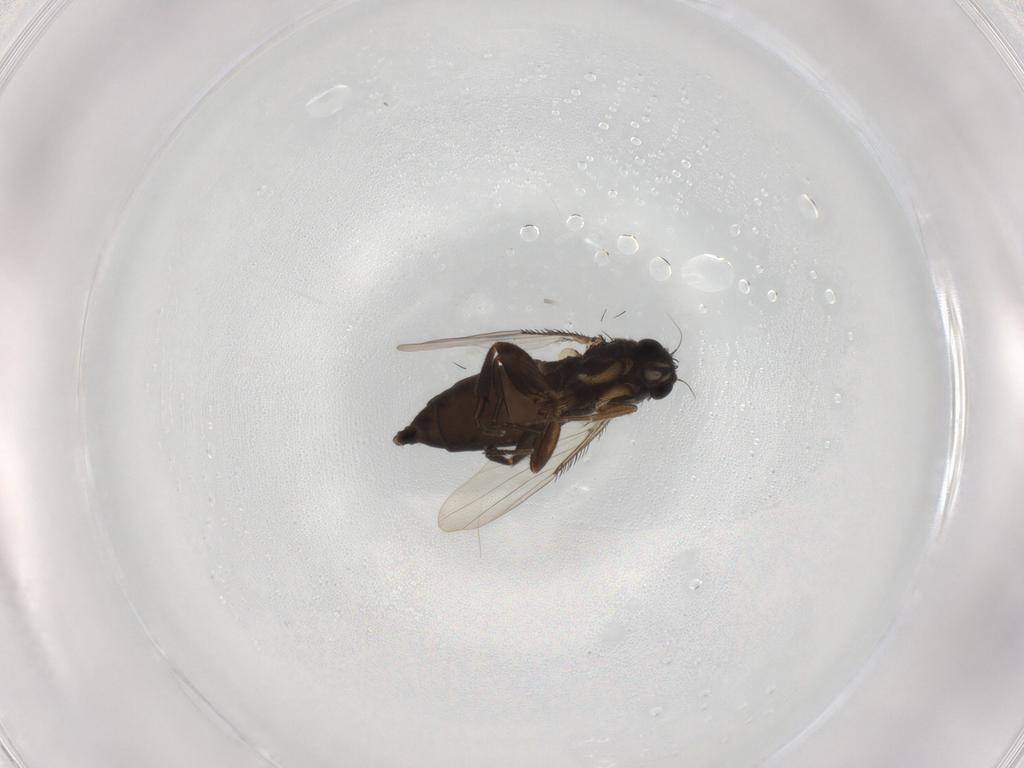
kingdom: Animalia
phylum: Arthropoda
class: Insecta
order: Diptera
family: Phoridae
